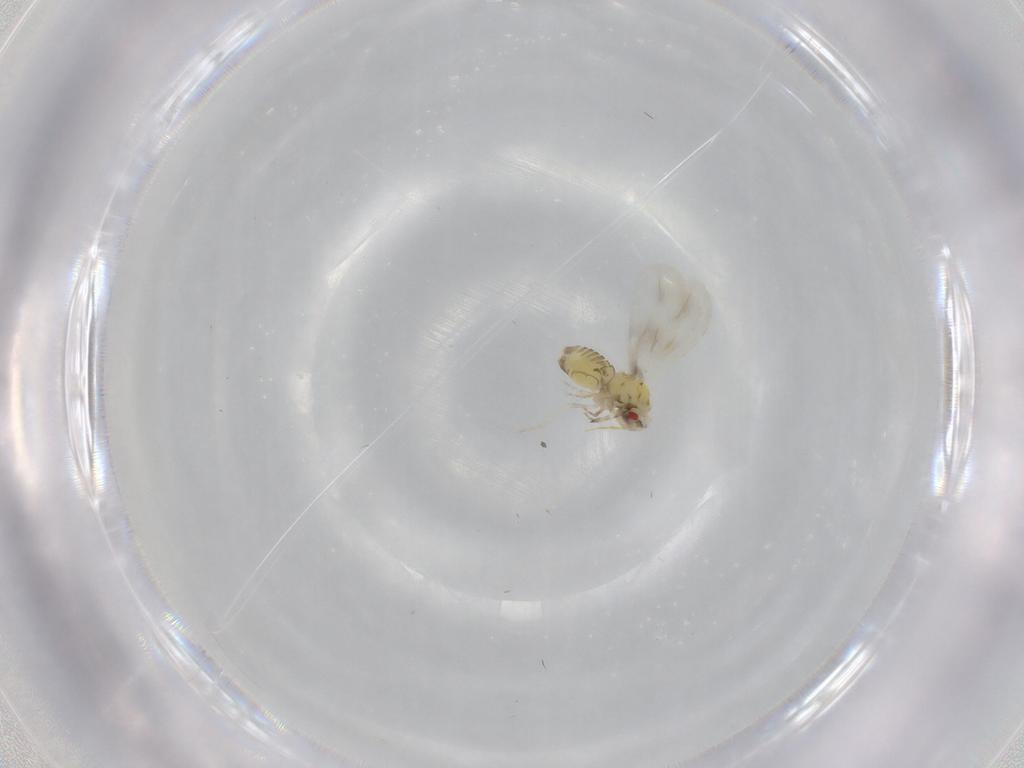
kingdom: Animalia
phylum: Arthropoda
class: Insecta
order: Hemiptera
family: Aleyrodidae
